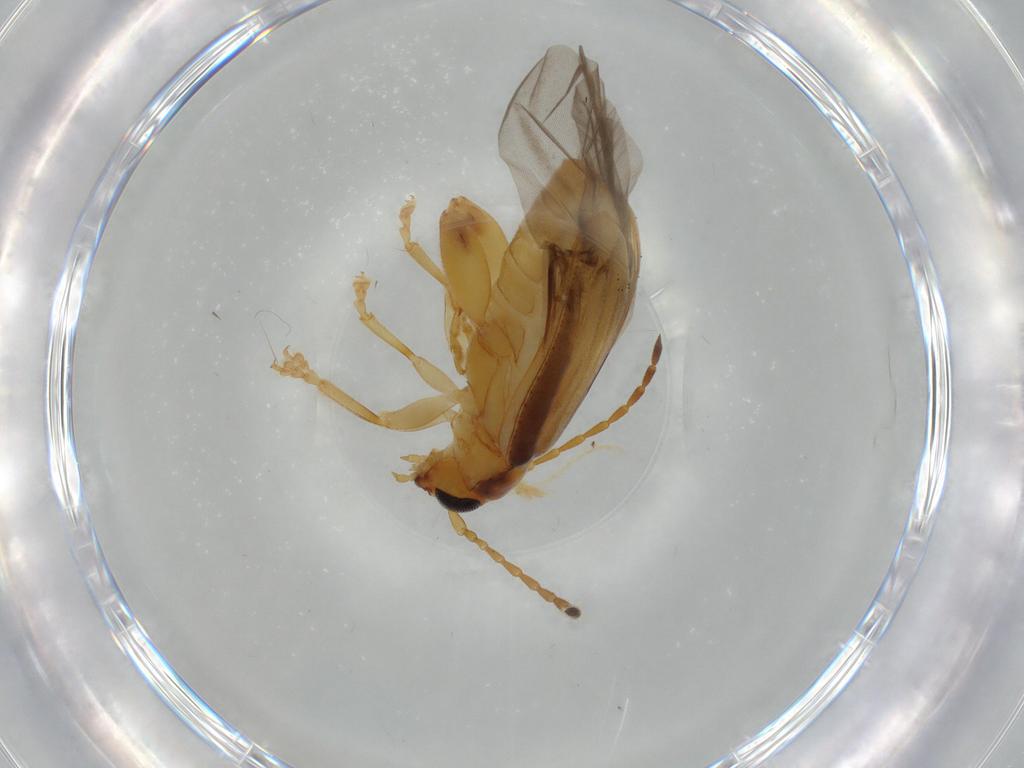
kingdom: Animalia
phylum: Arthropoda
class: Insecta
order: Coleoptera
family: Chrysomelidae
